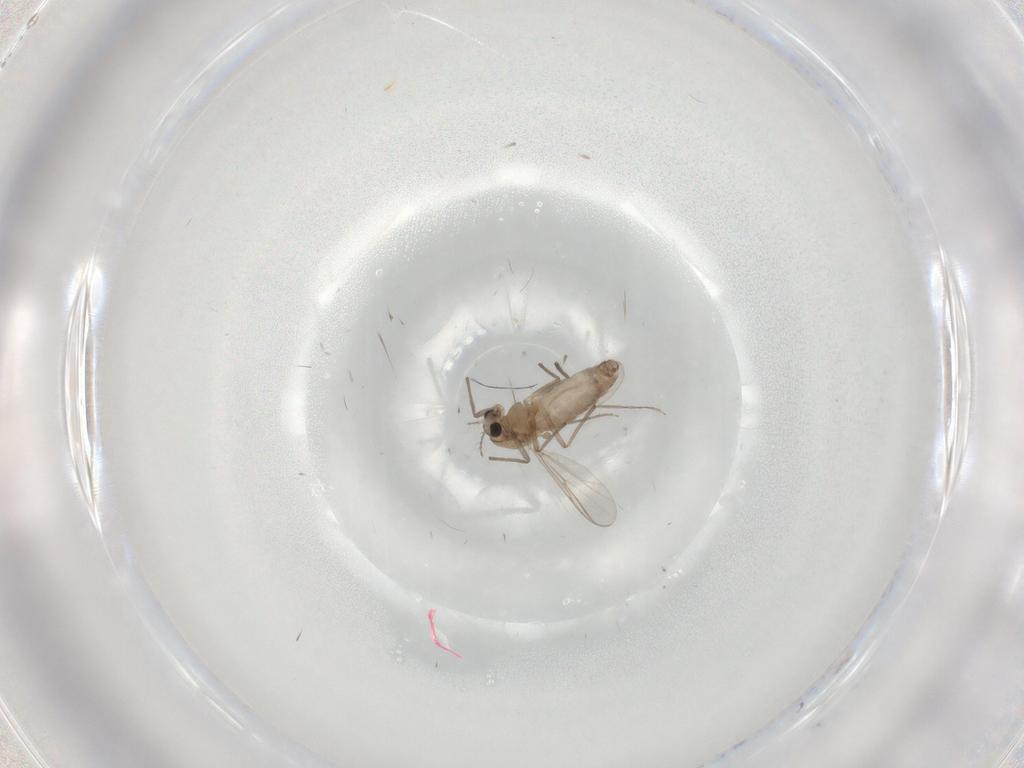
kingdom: Animalia
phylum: Arthropoda
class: Insecta
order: Diptera
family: Chironomidae
